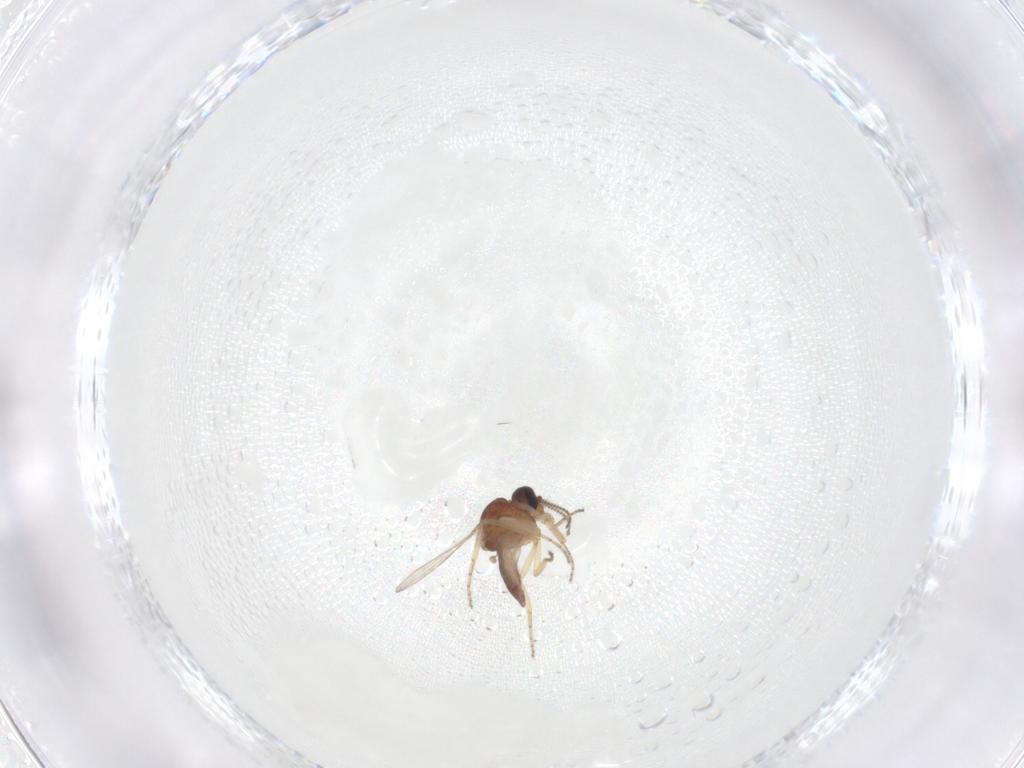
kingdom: Animalia
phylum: Arthropoda
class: Insecta
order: Diptera
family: Ceratopogonidae
